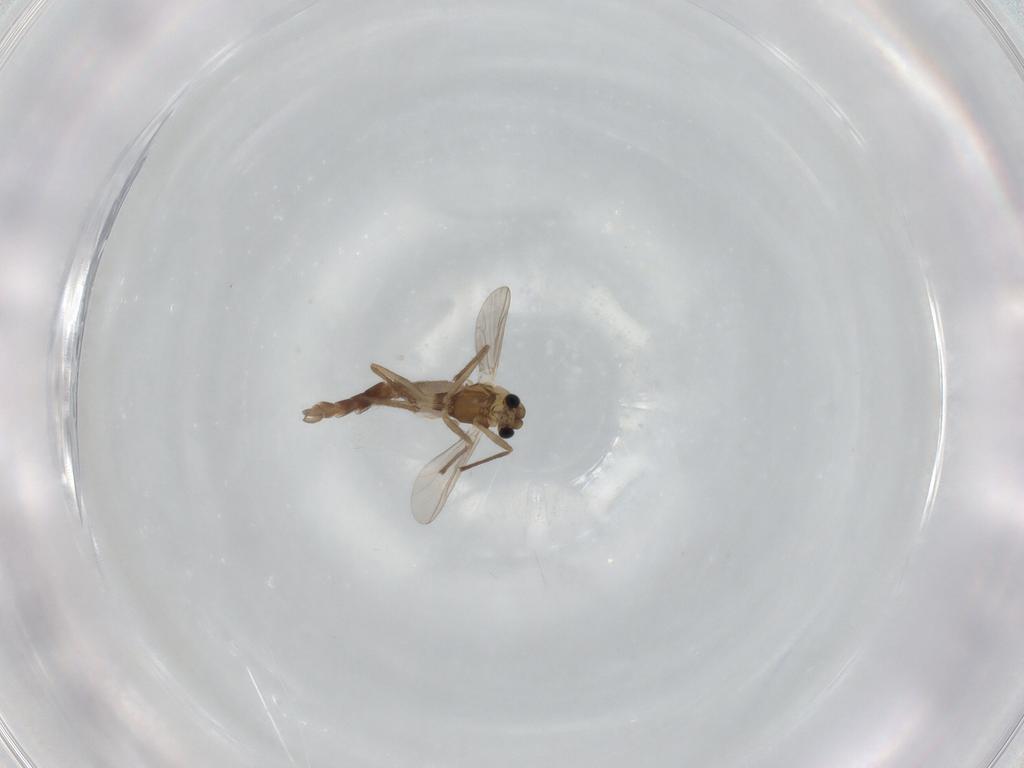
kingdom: Animalia
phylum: Arthropoda
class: Insecta
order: Diptera
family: Chironomidae
